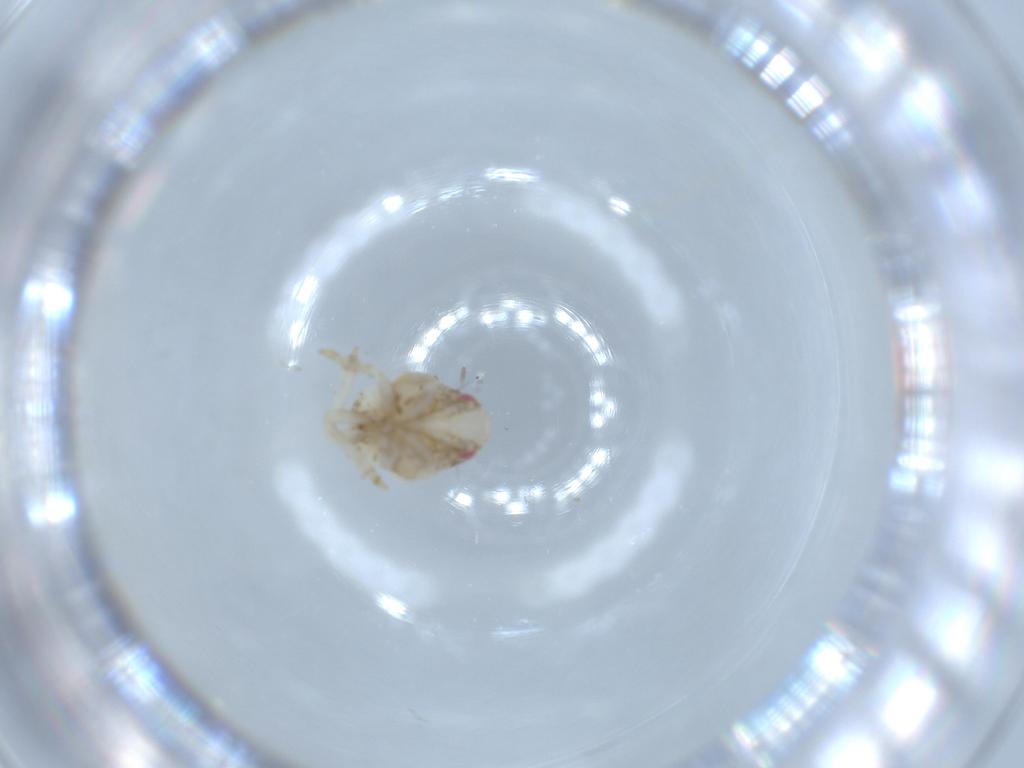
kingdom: Animalia
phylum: Arthropoda
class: Insecta
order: Hemiptera
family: Acanaloniidae
